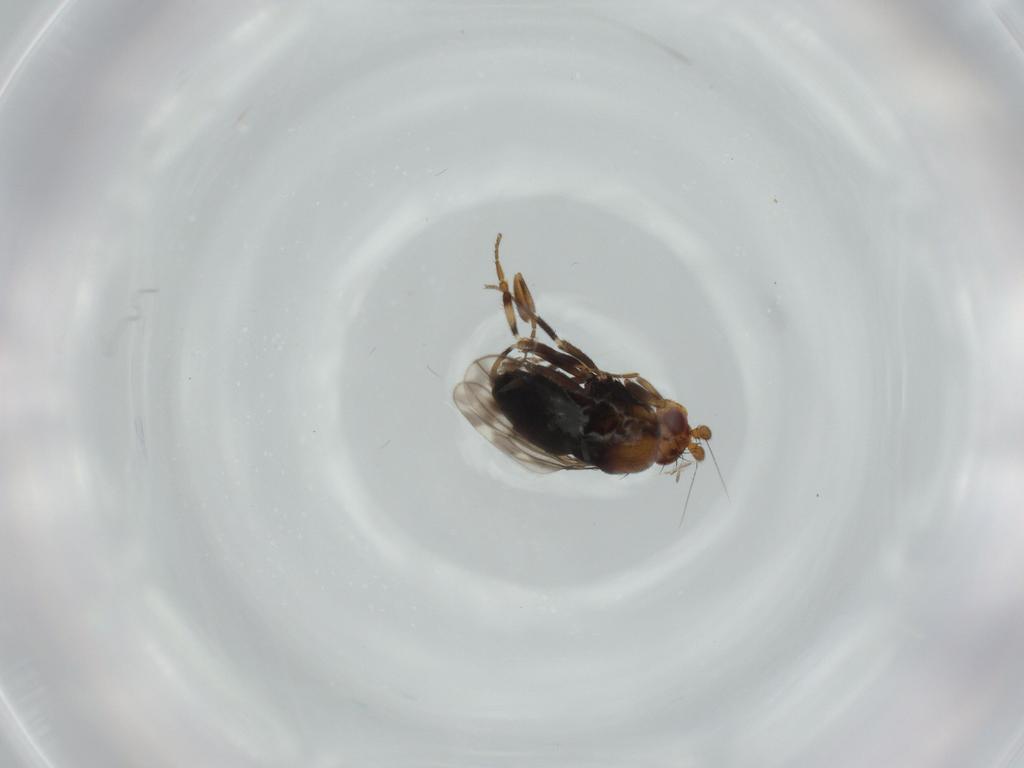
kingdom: Animalia
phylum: Arthropoda
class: Insecta
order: Diptera
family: Sphaeroceridae
